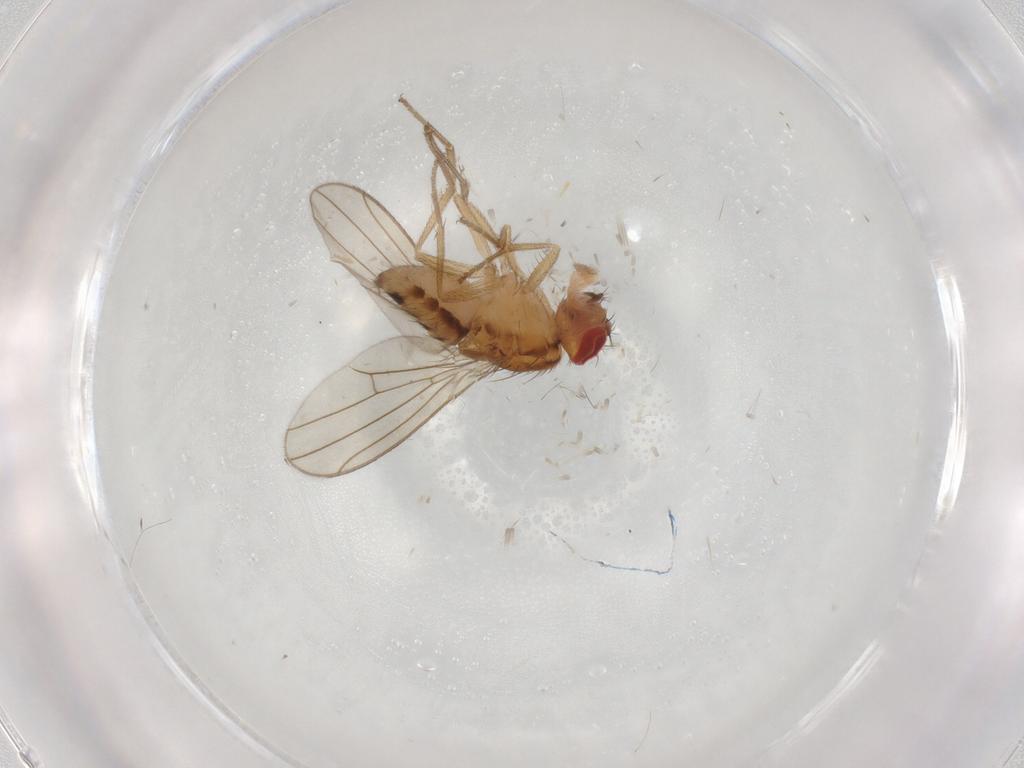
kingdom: Animalia
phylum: Arthropoda
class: Insecta
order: Diptera
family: Drosophilidae
